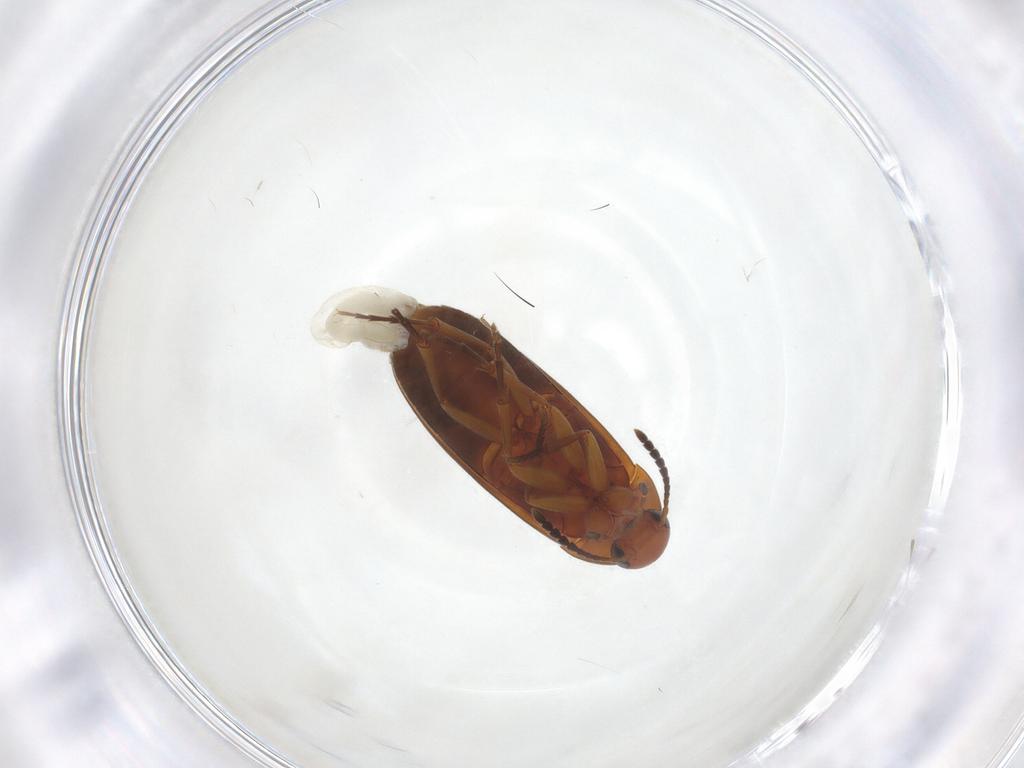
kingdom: Animalia
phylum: Arthropoda
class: Insecta
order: Coleoptera
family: Scraptiidae
